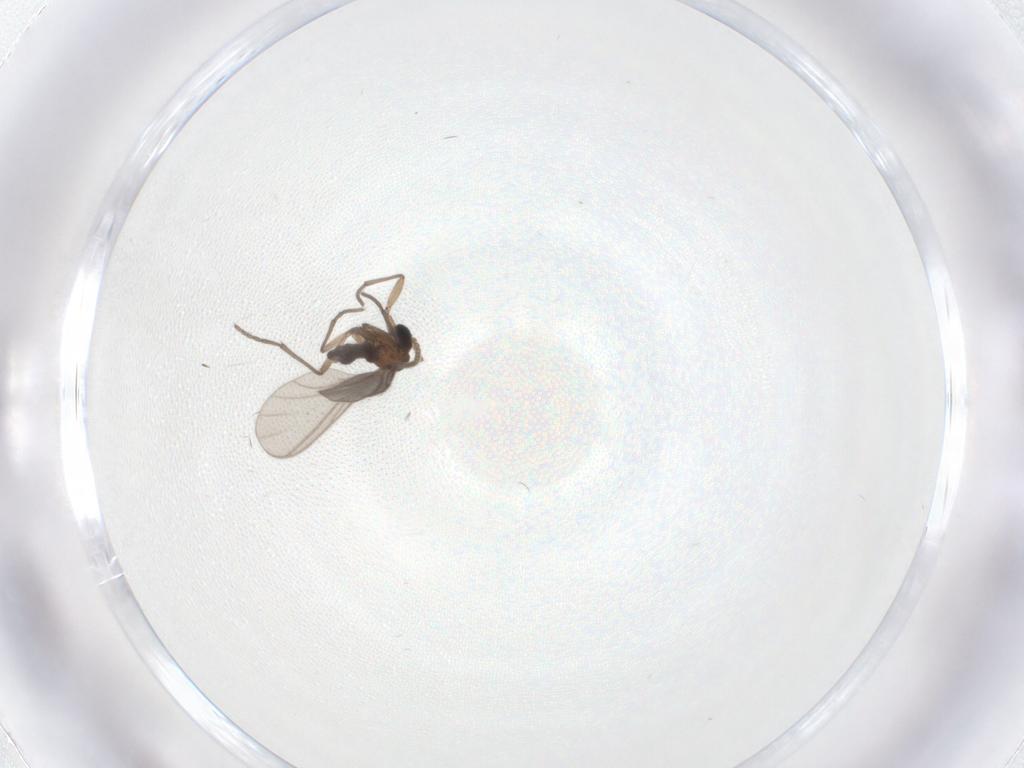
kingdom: Animalia
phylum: Arthropoda
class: Insecta
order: Diptera
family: Sciaridae
